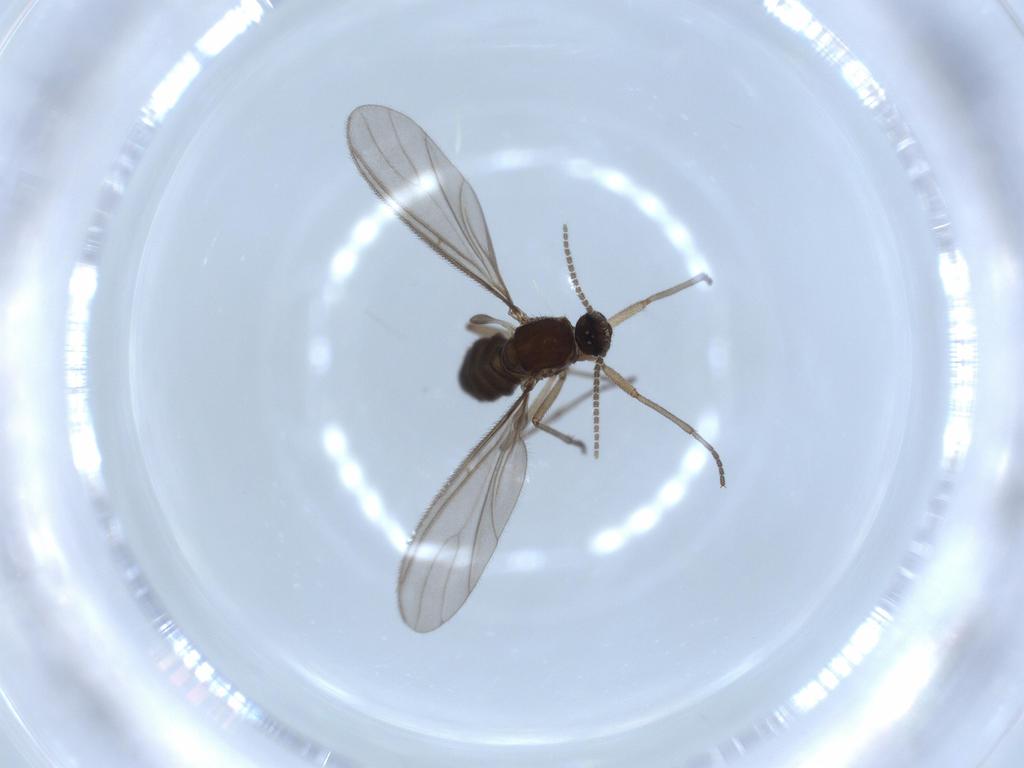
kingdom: Animalia
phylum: Arthropoda
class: Insecta
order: Diptera
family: Sciaridae
